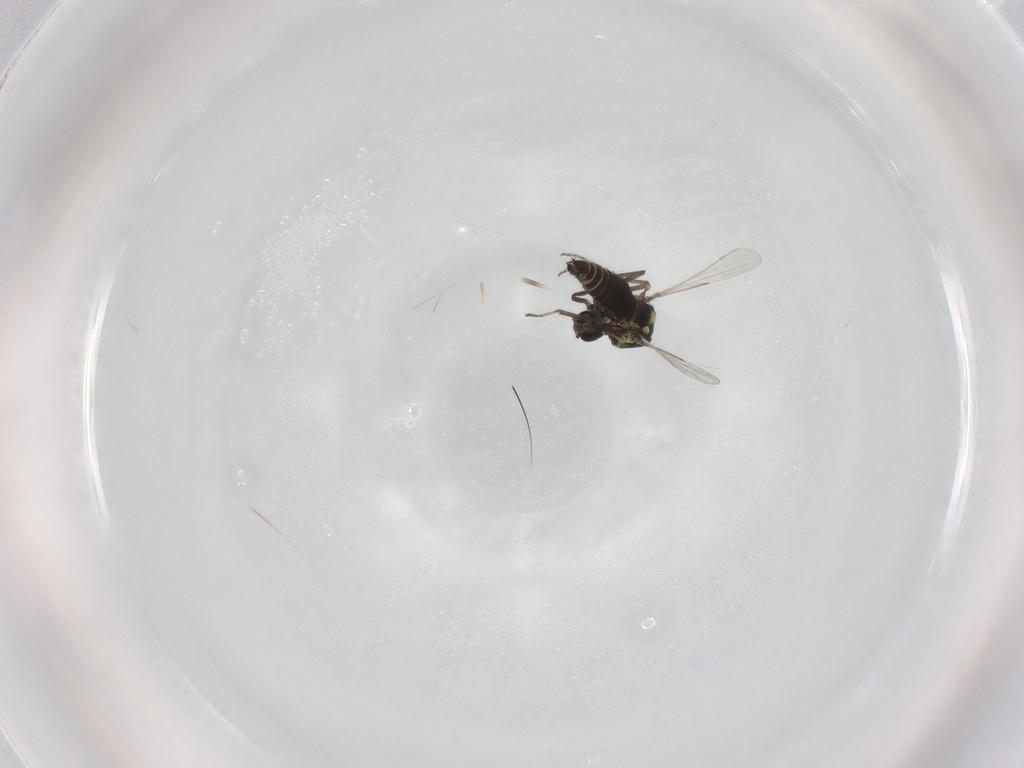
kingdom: Animalia
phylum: Arthropoda
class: Insecta
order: Diptera
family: Ceratopogonidae
